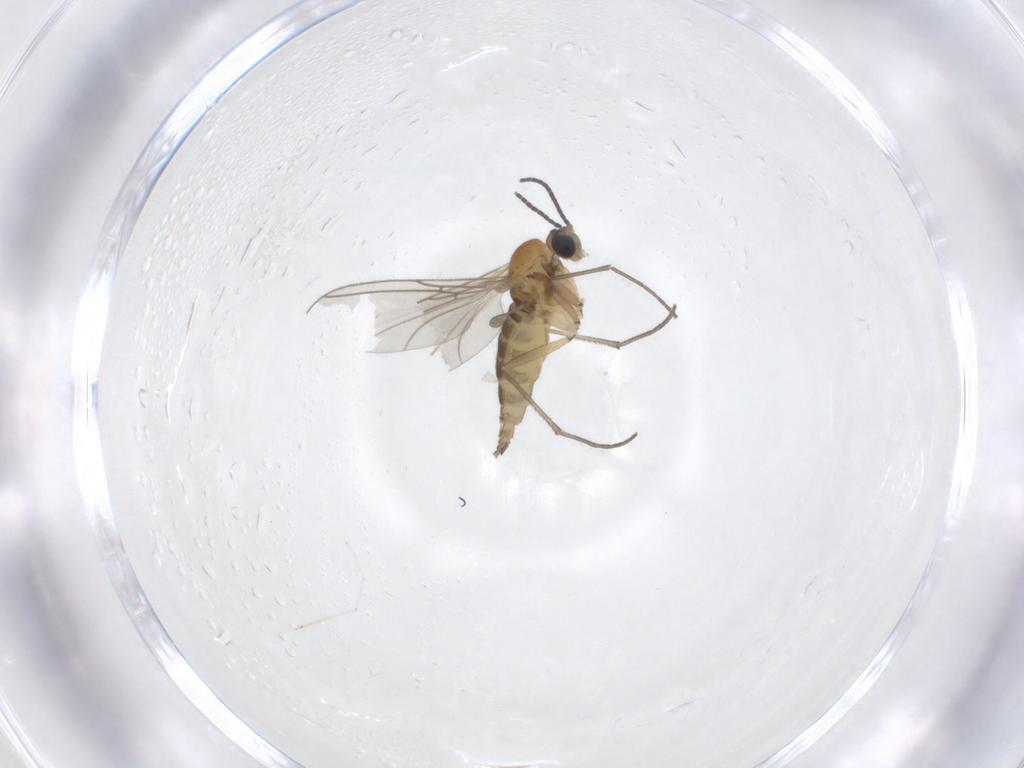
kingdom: Animalia
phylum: Arthropoda
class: Insecta
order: Diptera
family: Sciaridae
